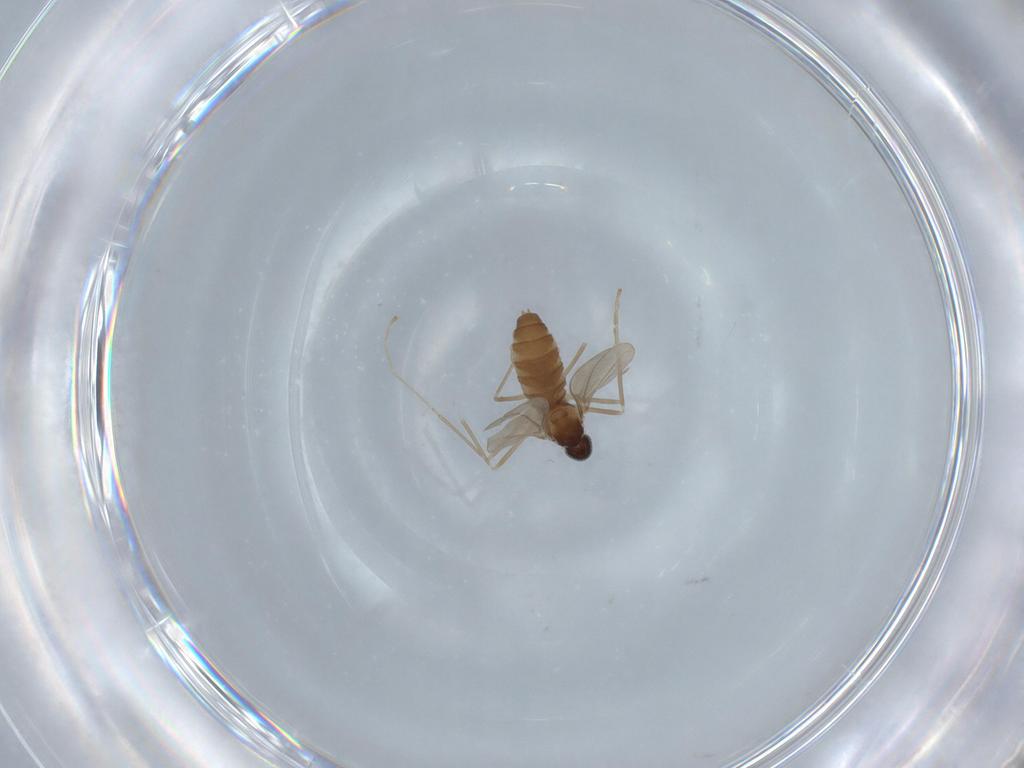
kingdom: Animalia
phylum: Arthropoda
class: Insecta
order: Diptera
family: Cecidomyiidae
